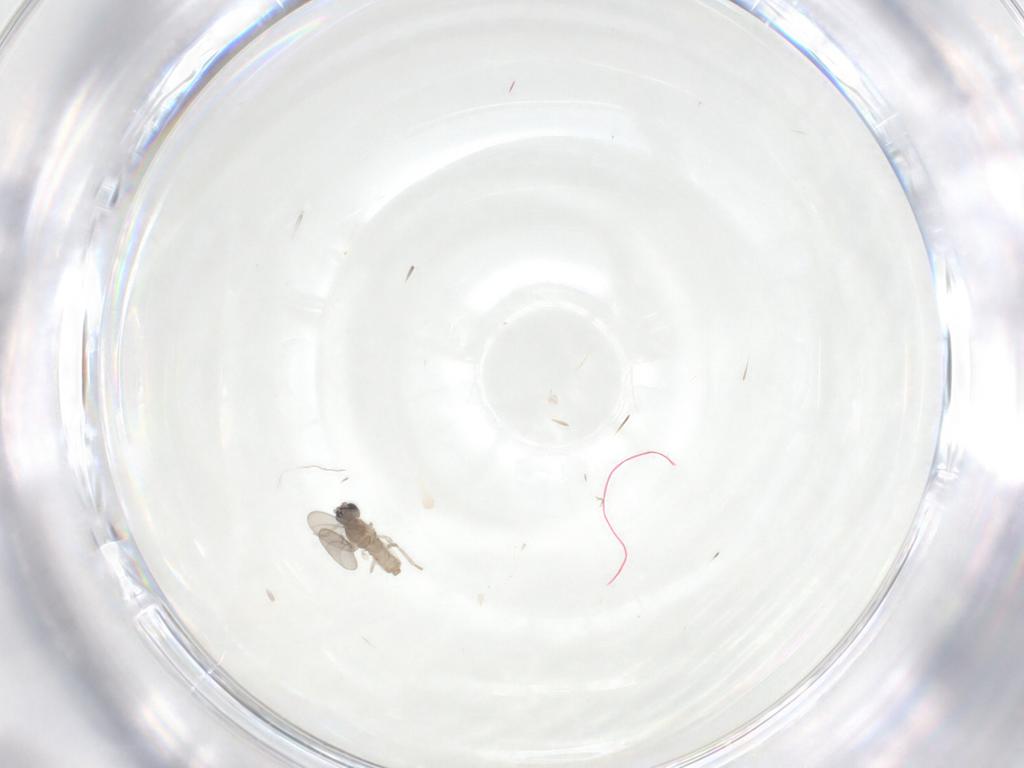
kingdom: Animalia
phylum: Arthropoda
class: Insecta
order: Diptera
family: Cecidomyiidae
